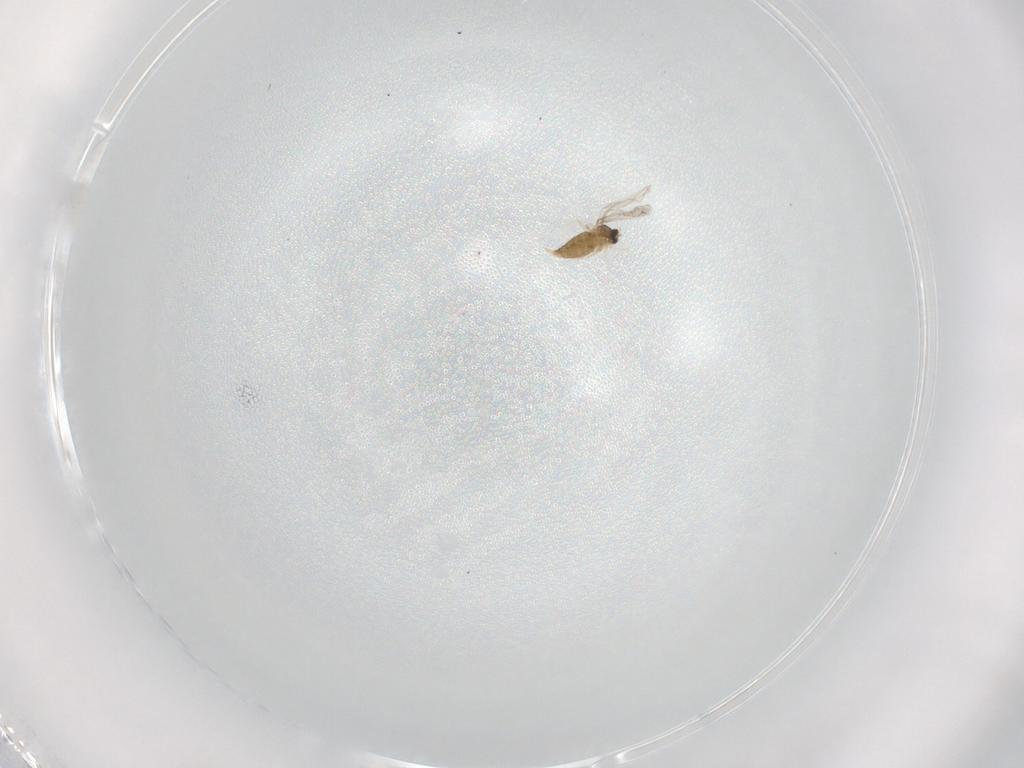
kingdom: Animalia
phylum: Arthropoda
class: Insecta
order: Diptera
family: Cecidomyiidae
